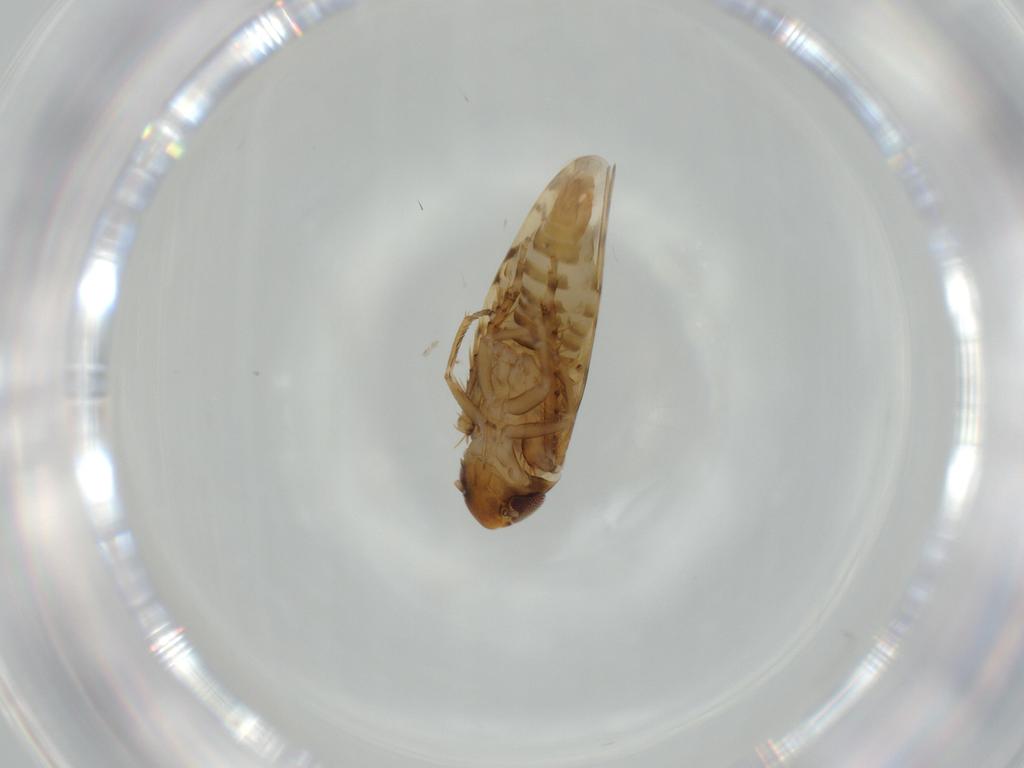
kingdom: Animalia
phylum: Arthropoda
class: Insecta
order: Hemiptera
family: Cicadellidae
